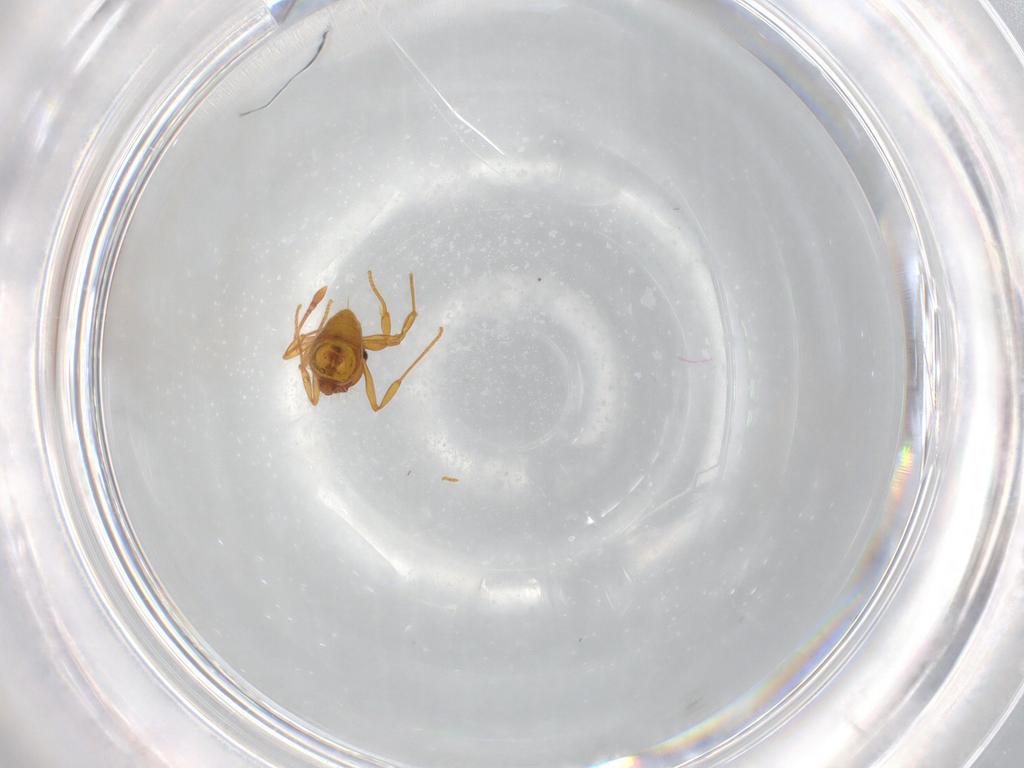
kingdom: Animalia
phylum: Arthropoda
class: Insecta
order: Hymenoptera
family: Formicidae
